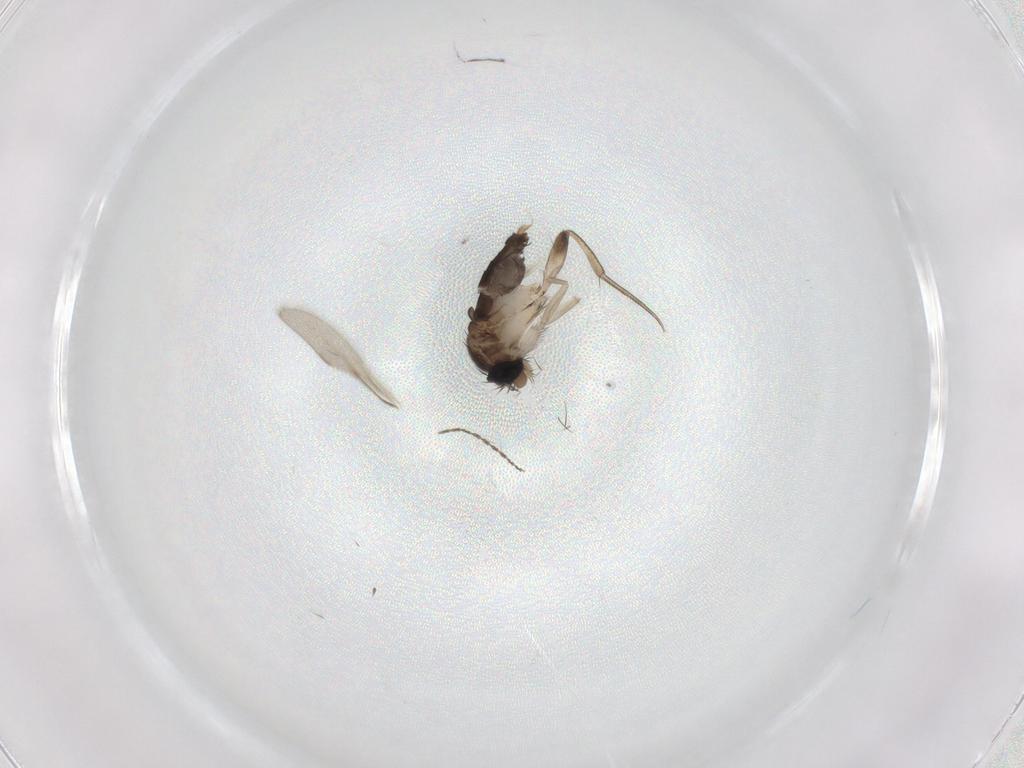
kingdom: Animalia
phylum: Arthropoda
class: Insecta
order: Diptera
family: Phoridae
